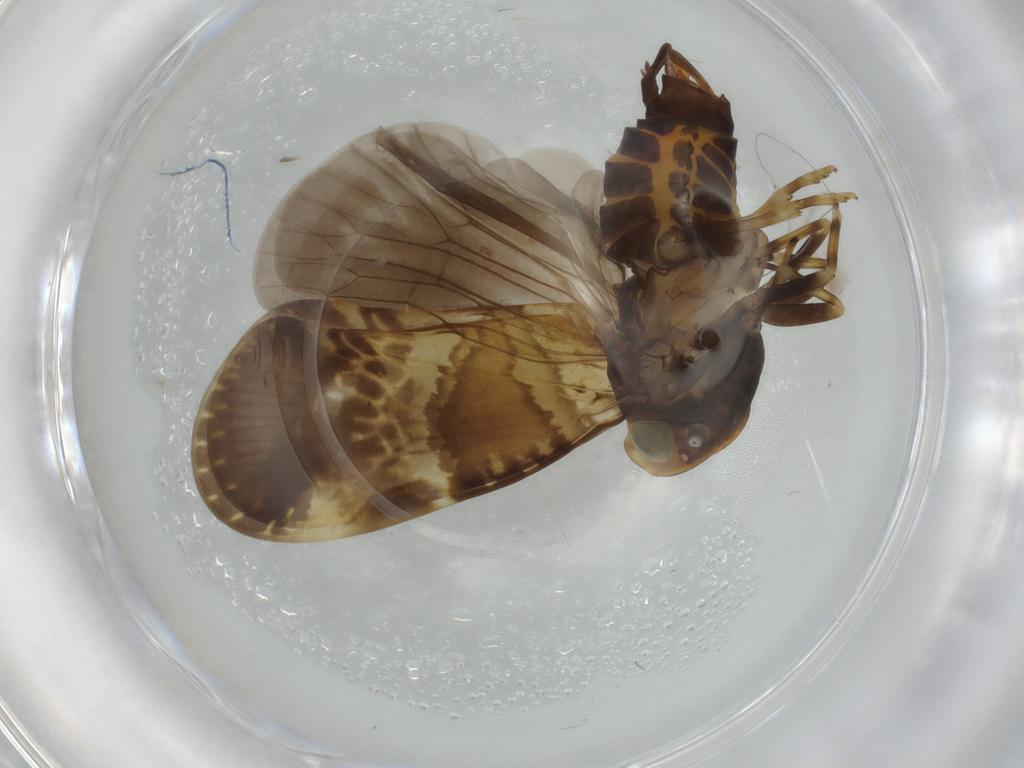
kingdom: Animalia
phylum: Arthropoda
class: Insecta
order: Hemiptera
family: Cixiidae
